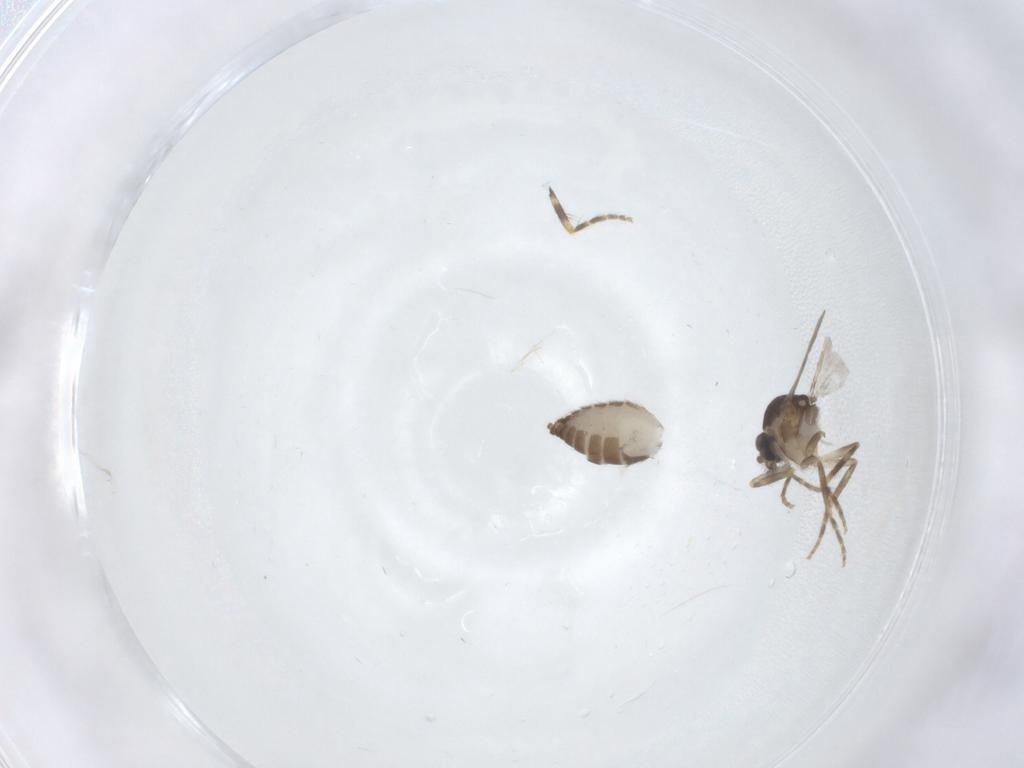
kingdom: Animalia
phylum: Arthropoda
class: Insecta
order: Diptera
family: Ceratopogonidae
